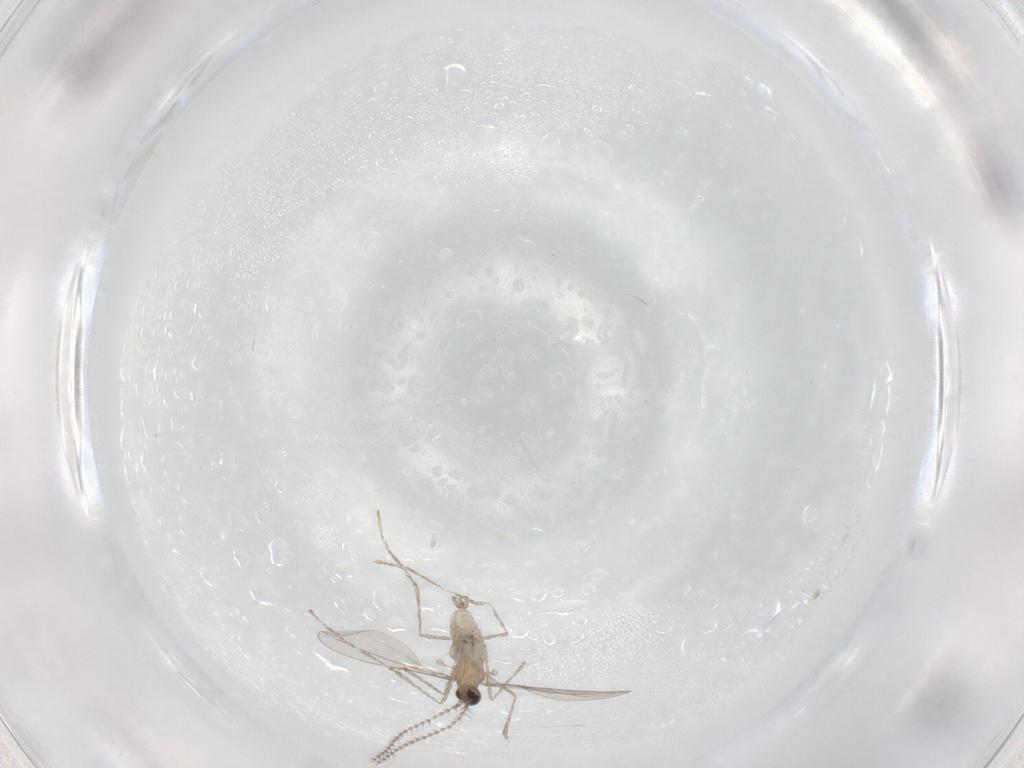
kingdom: Animalia
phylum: Arthropoda
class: Insecta
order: Diptera
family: Cecidomyiidae
